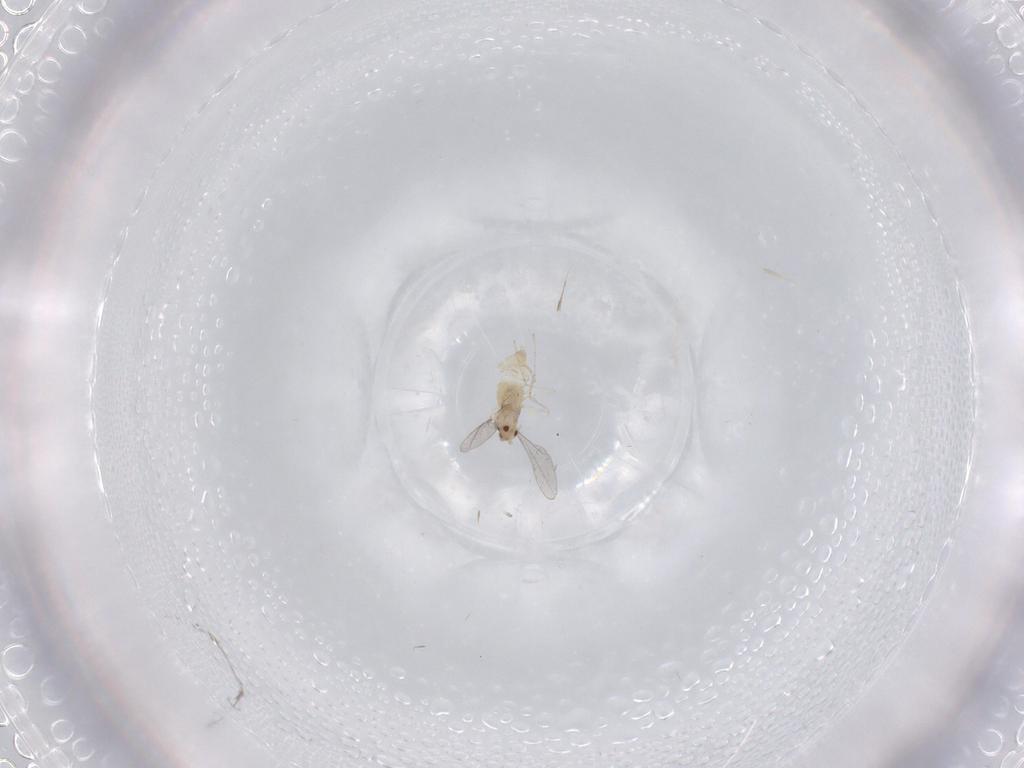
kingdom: Animalia
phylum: Arthropoda
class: Insecta
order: Diptera
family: Cecidomyiidae
